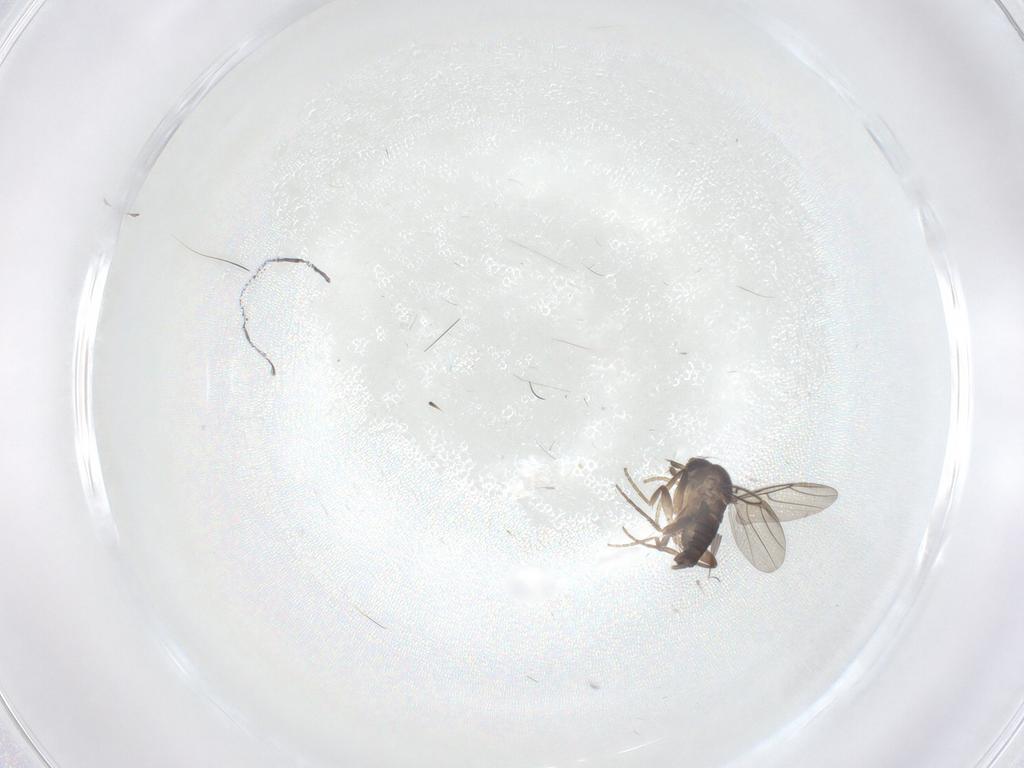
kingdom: Animalia
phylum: Arthropoda
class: Insecta
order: Diptera
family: Phoridae
